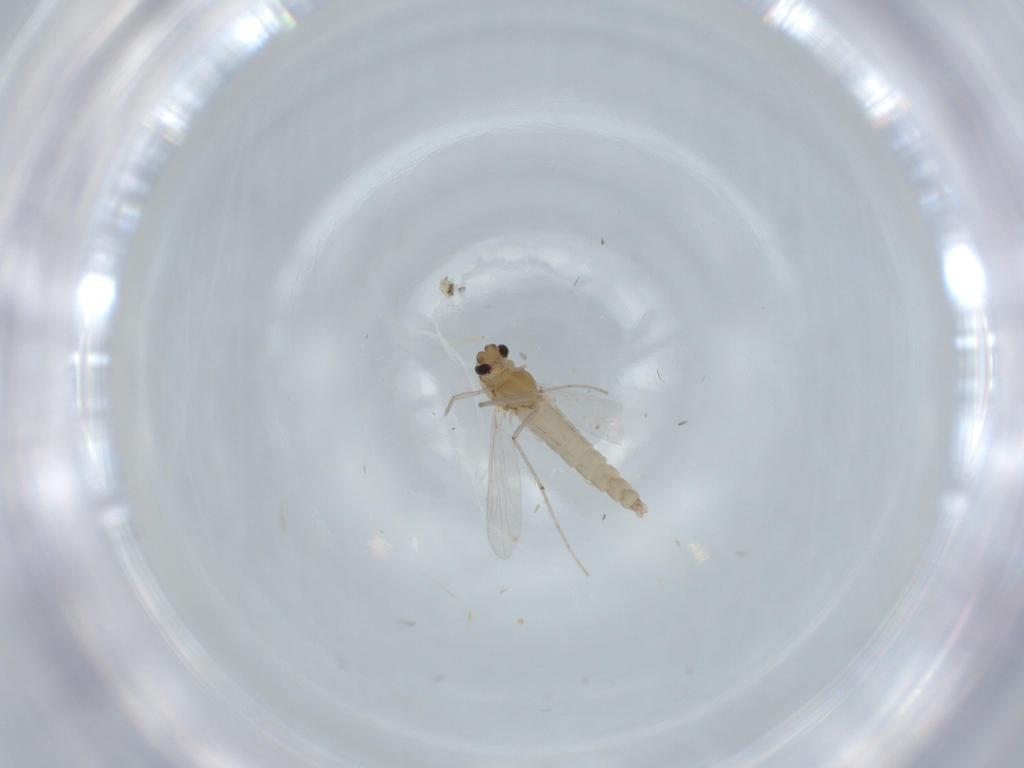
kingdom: Animalia
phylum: Arthropoda
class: Insecta
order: Diptera
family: Chironomidae
